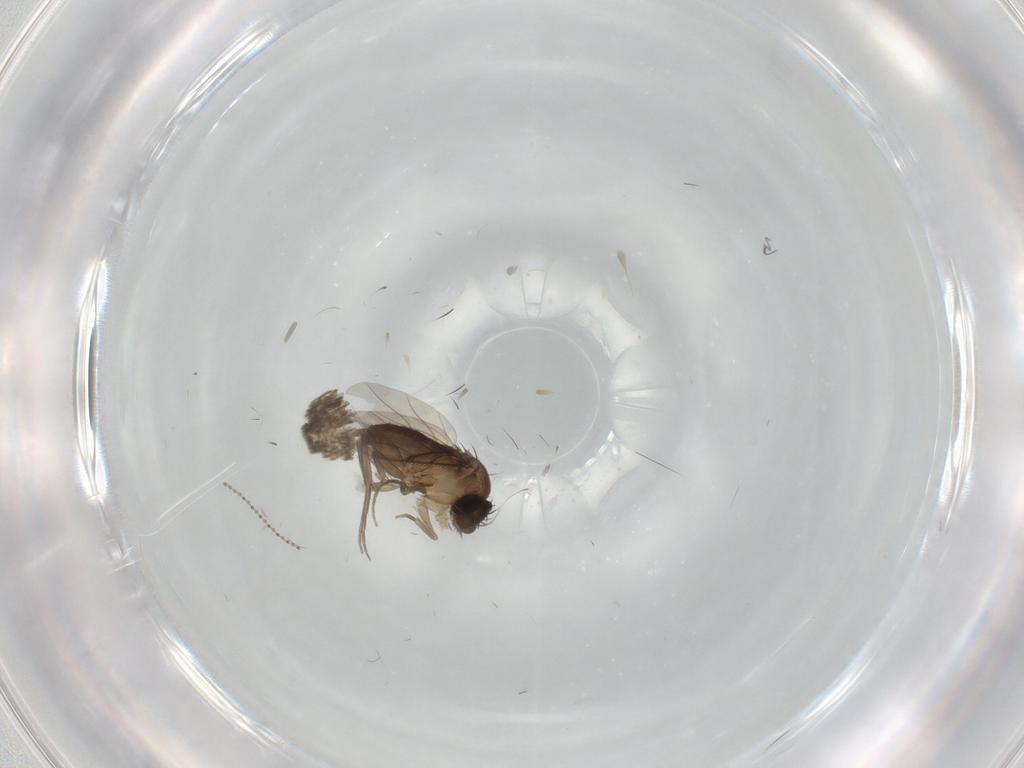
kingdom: Animalia
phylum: Arthropoda
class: Insecta
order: Diptera
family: Phoridae
